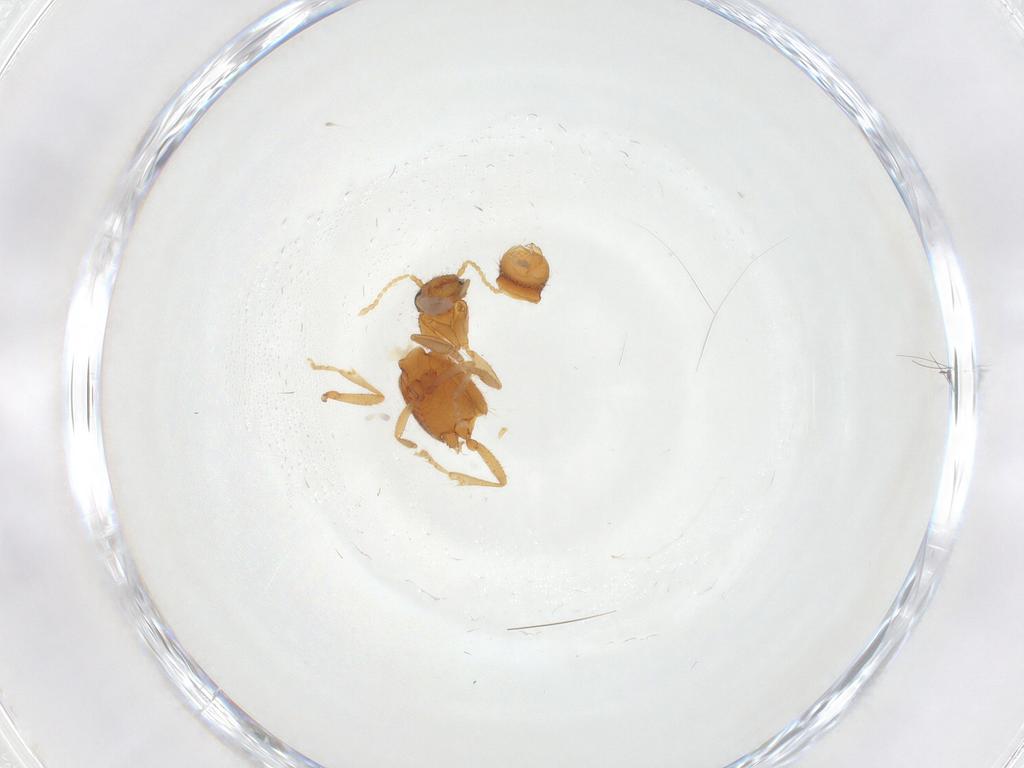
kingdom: Animalia
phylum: Arthropoda
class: Insecta
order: Coleoptera
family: Staphylinidae
